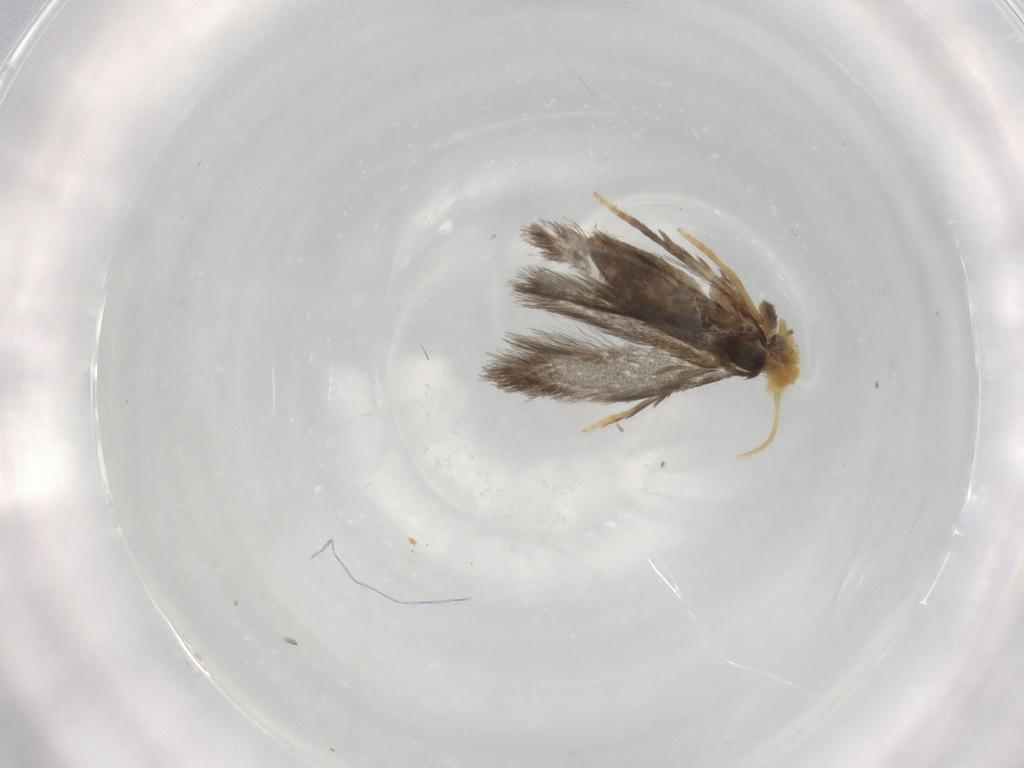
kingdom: Animalia
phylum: Arthropoda
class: Insecta
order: Lepidoptera
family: Nepticulidae
